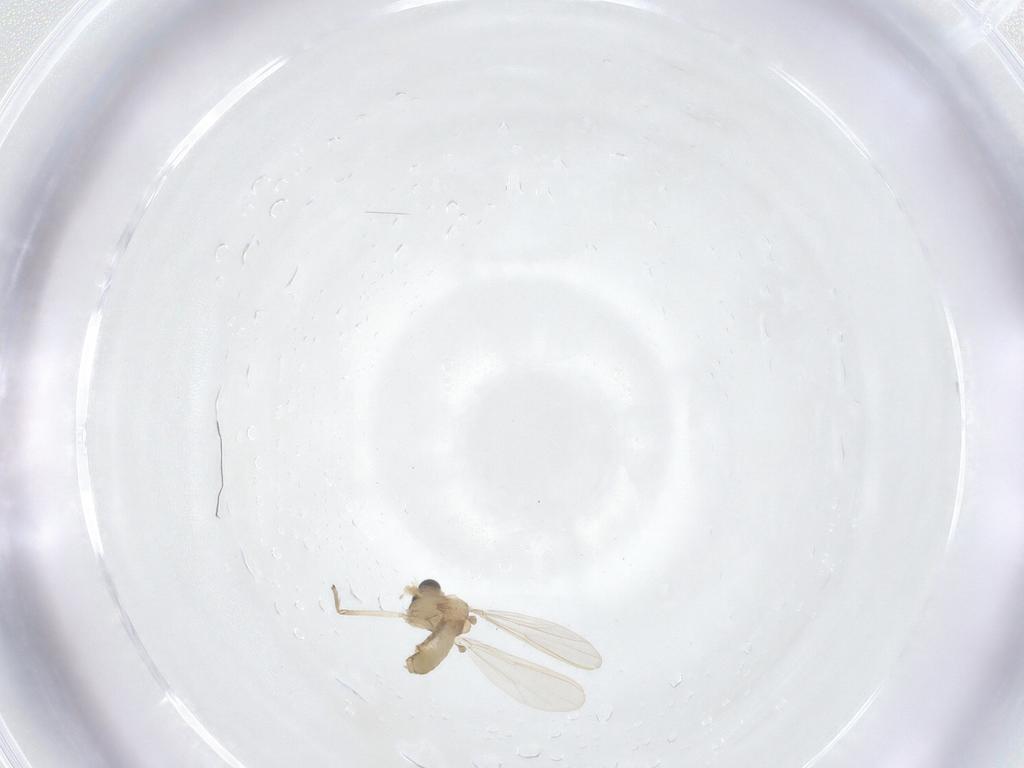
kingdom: Animalia
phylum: Arthropoda
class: Insecta
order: Diptera
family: Chironomidae
